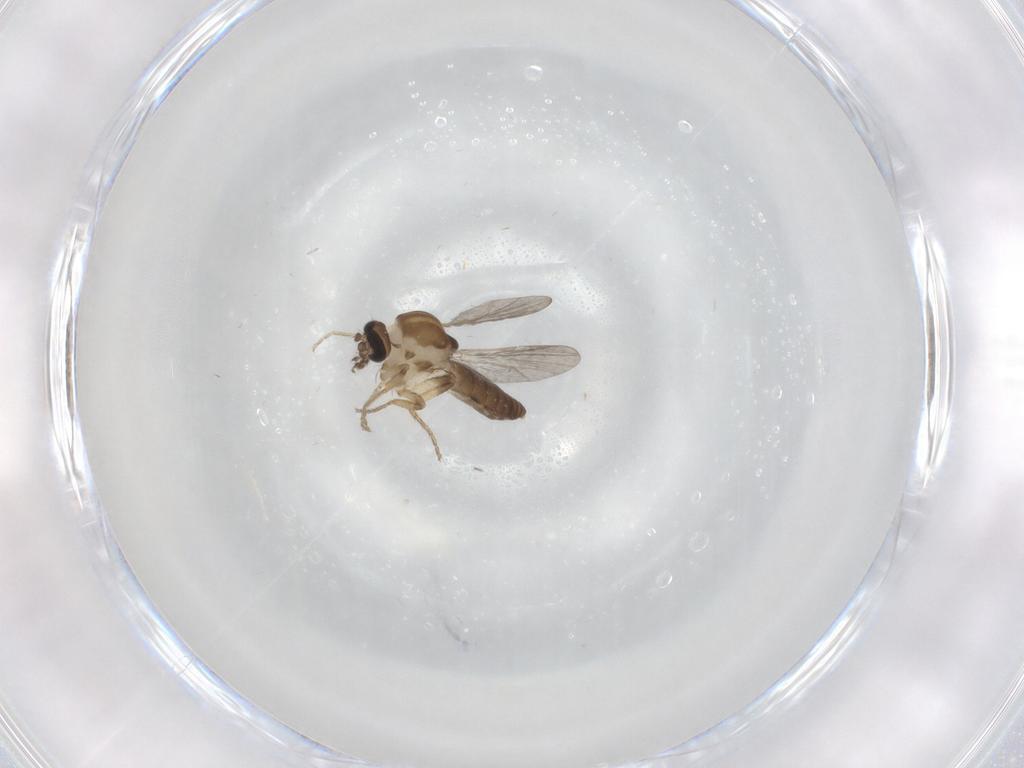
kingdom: Animalia
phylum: Arthropoda
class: Insecta
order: Diptera
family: Ceratopogonidae
